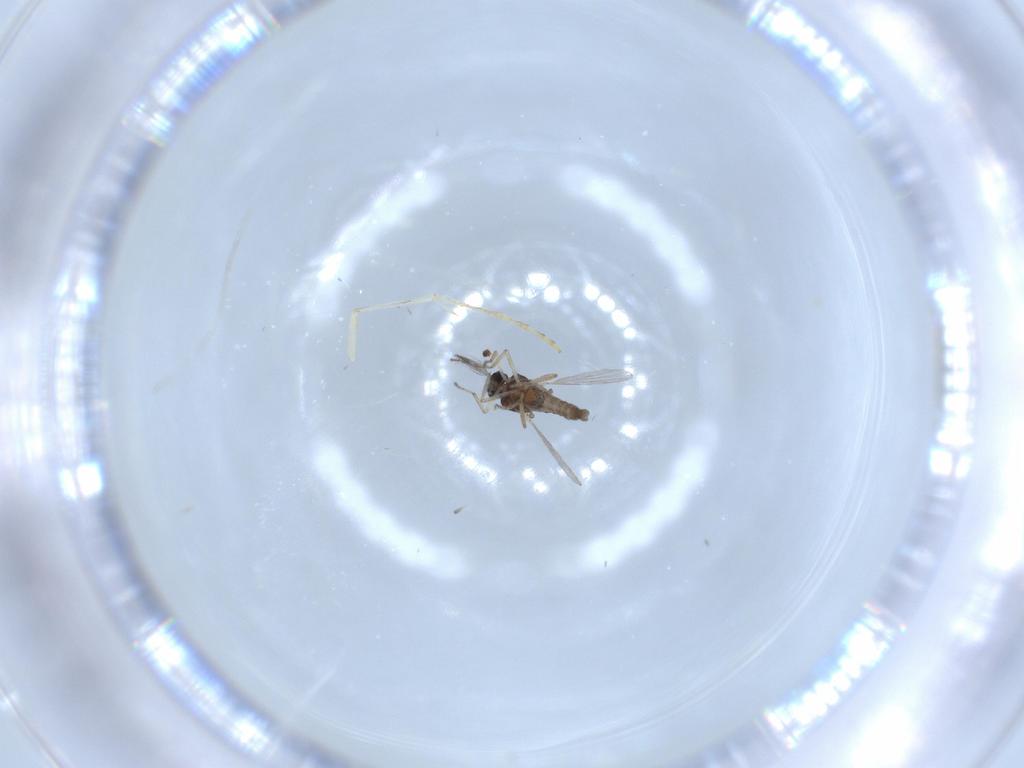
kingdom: Animalia
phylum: Arthropoda
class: Insecta
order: Diptera
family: Ceratopogonidae
